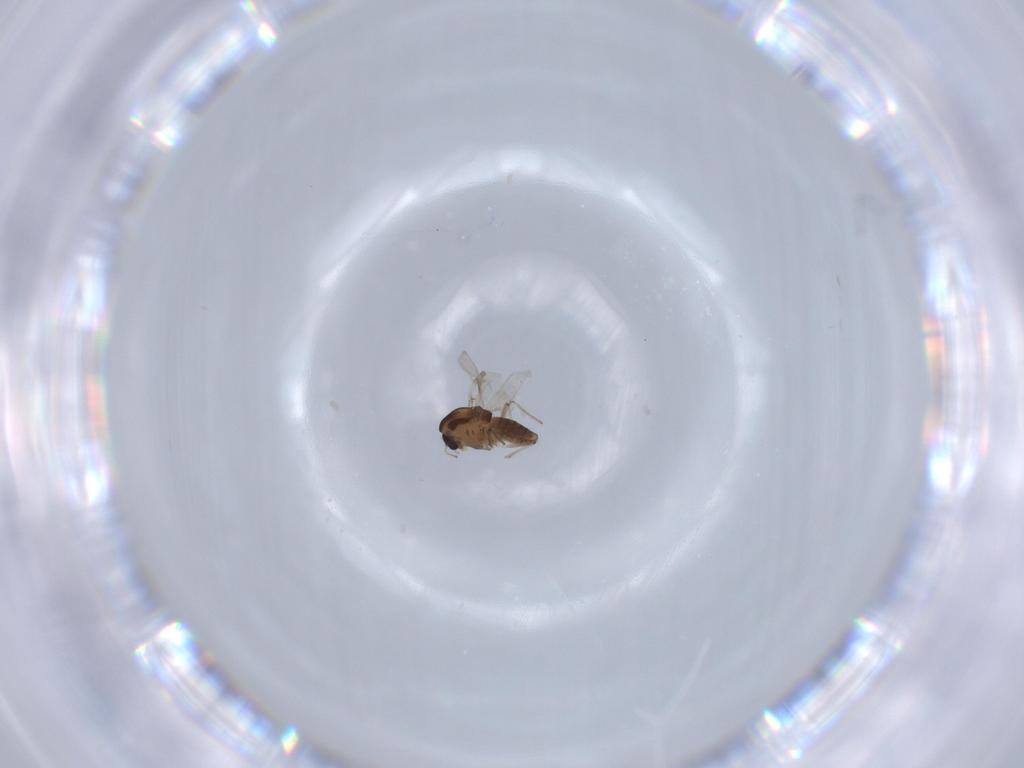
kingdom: Animalia
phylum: Arthropoda
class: Insecta
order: Diptera
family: Chironomidae
